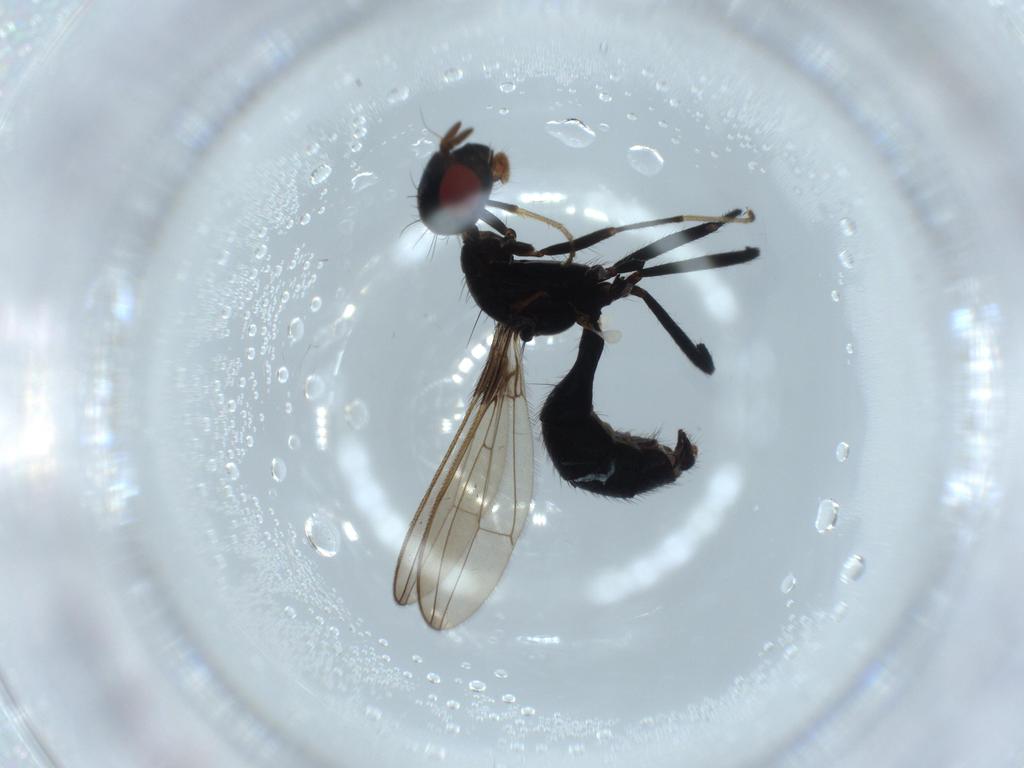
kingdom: Animalia
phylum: Arthropoda
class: Insecta
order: Diptera
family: Richardiidae
